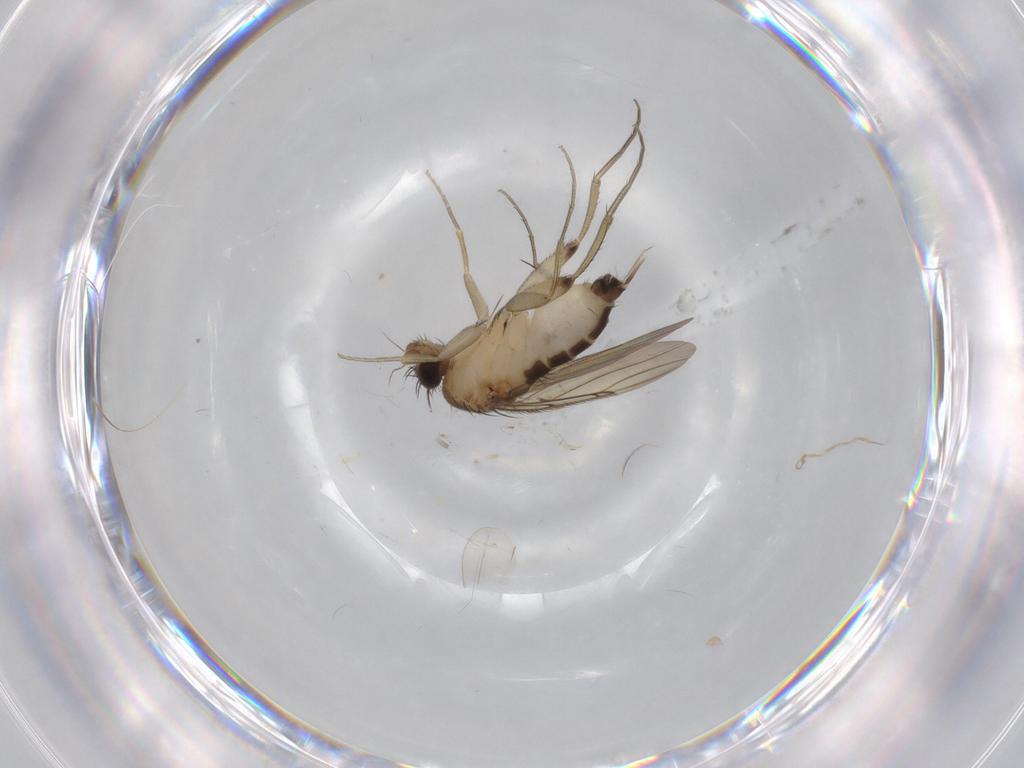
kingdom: Animalia
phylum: Arthropoda
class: Insecta
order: Diptera
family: Phoridae
